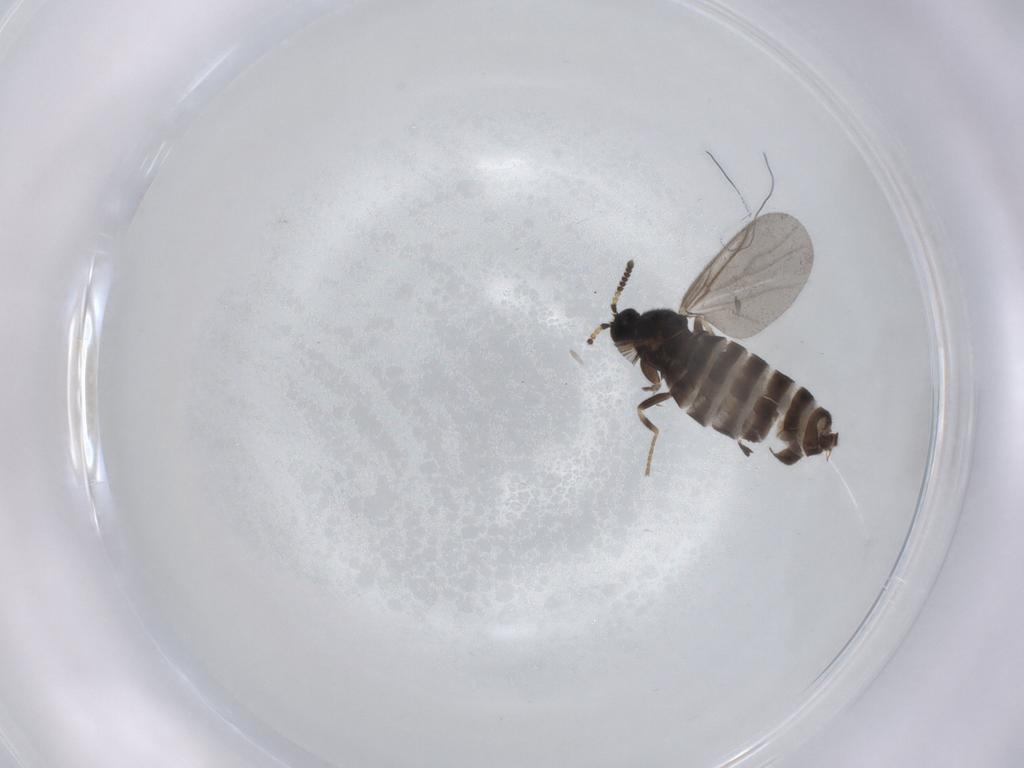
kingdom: Animalia
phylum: Arthropoda
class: Insecta
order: Diptera
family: Scatopsidae
